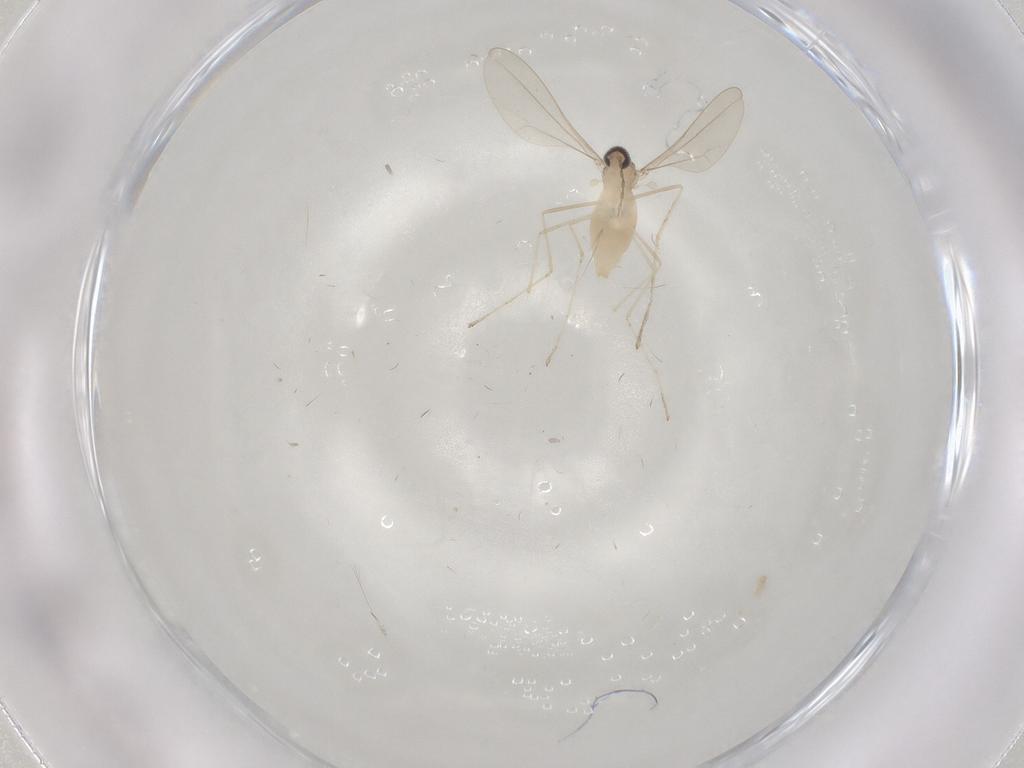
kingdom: Animalia
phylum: Arthropoda
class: Insecta
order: Diptera
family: Cecidomyiidae
